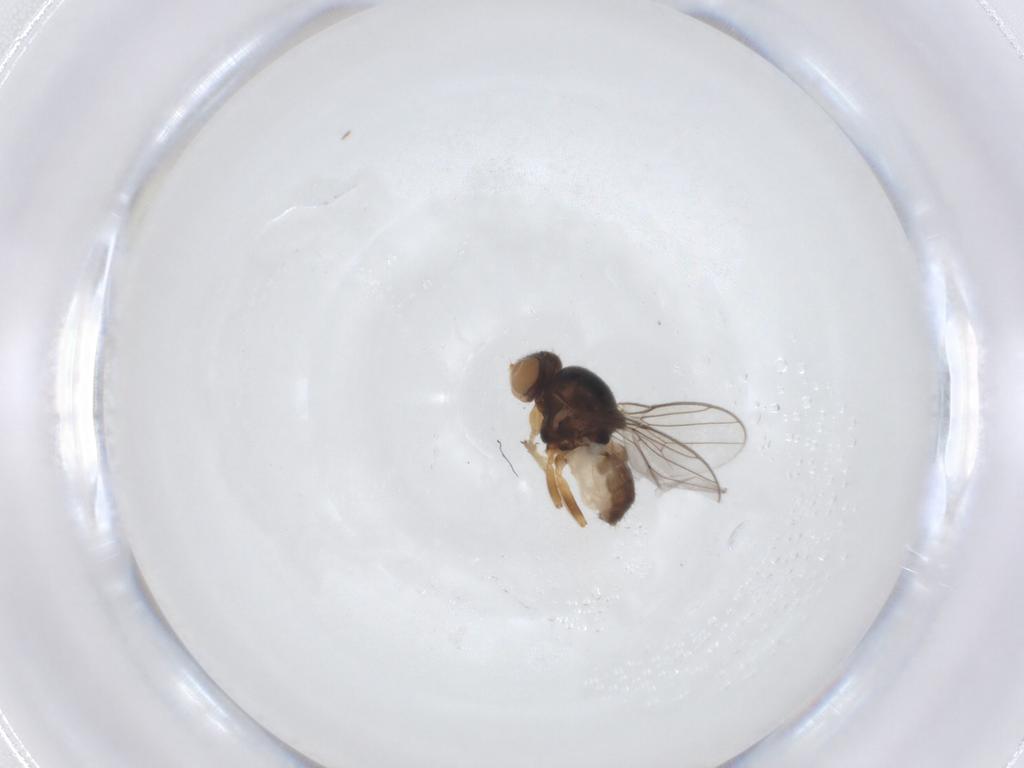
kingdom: Animalia
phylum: Arthropoda
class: Insecta
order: Diptera
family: Chloropidae
